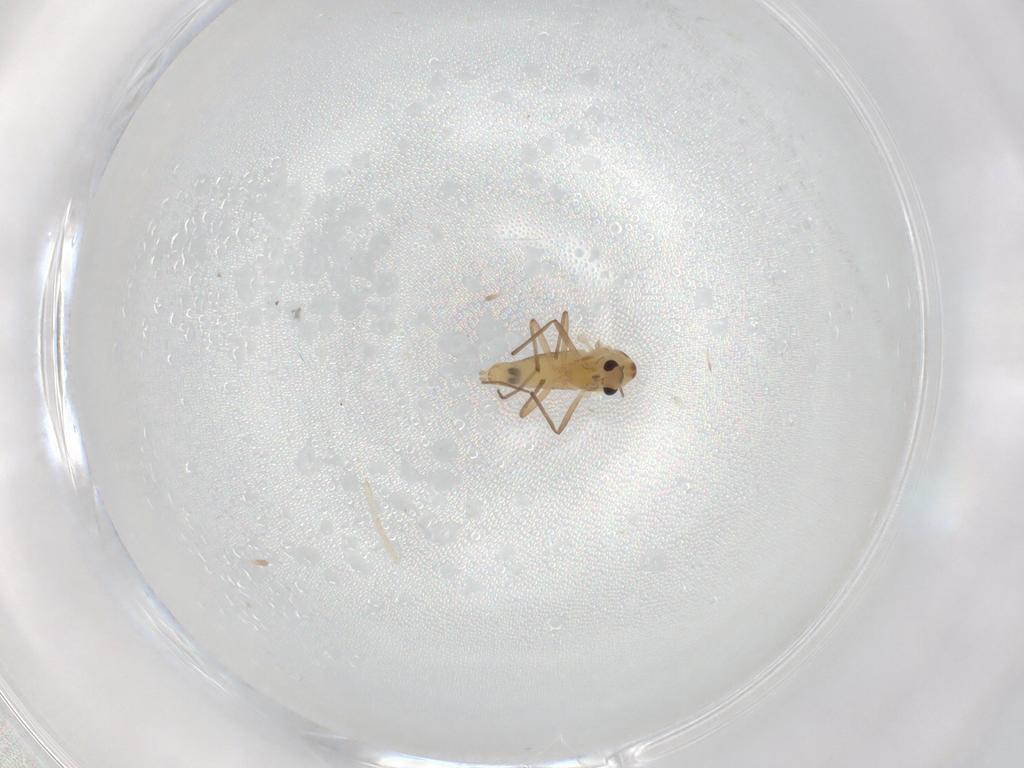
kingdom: Animalia
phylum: Arthropoda
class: Insecta
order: Diptera
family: Chironomidae
